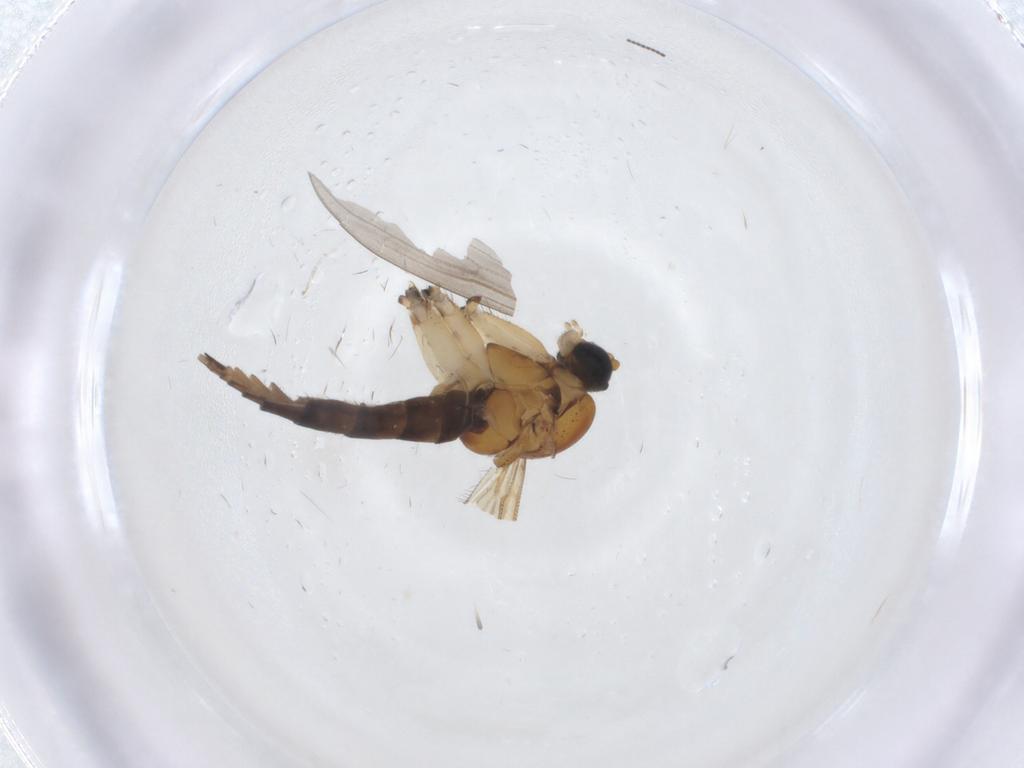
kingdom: Animalia
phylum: Arthropoda
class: Insecta
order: Diptera
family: Sciaridae
